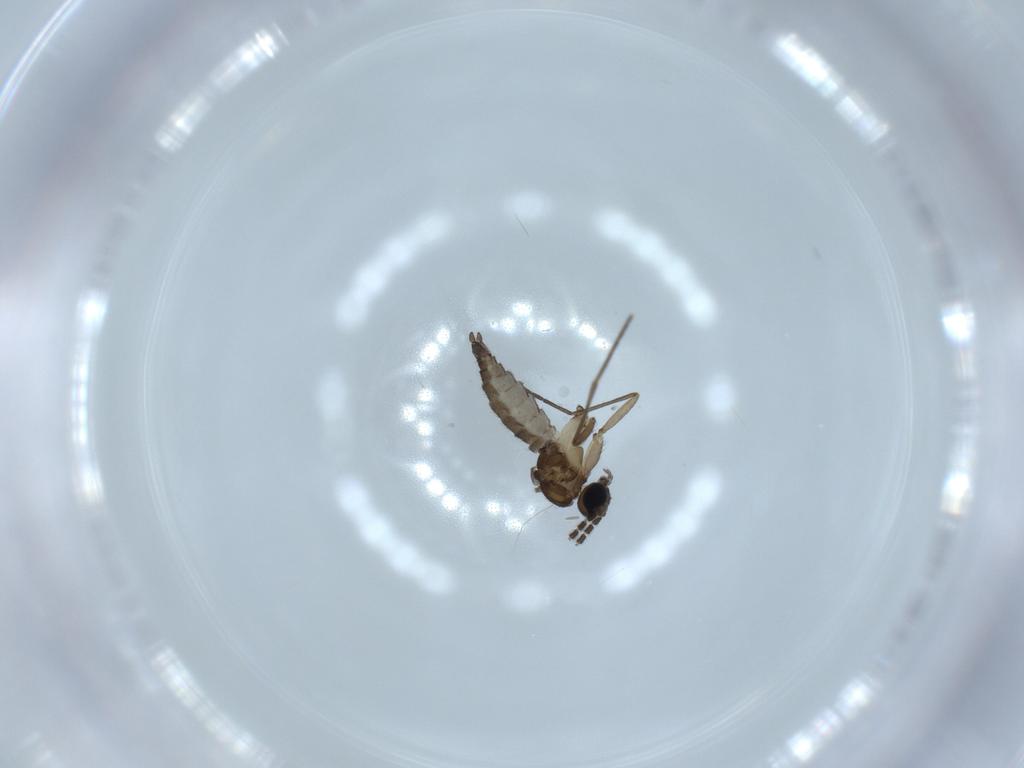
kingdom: Animalia
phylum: Arthropoda
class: Insecta
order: Diptera
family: Sciaridae
